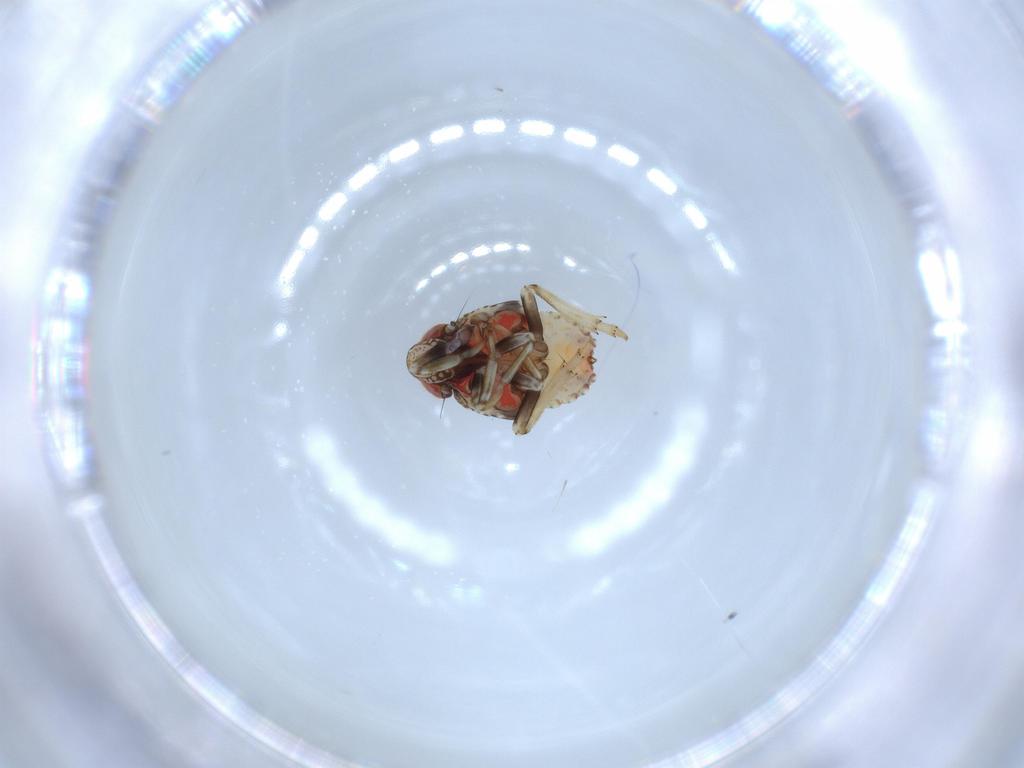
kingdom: Animalia
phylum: Arthropoda
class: Insecta
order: Hemiptera
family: Issidae
